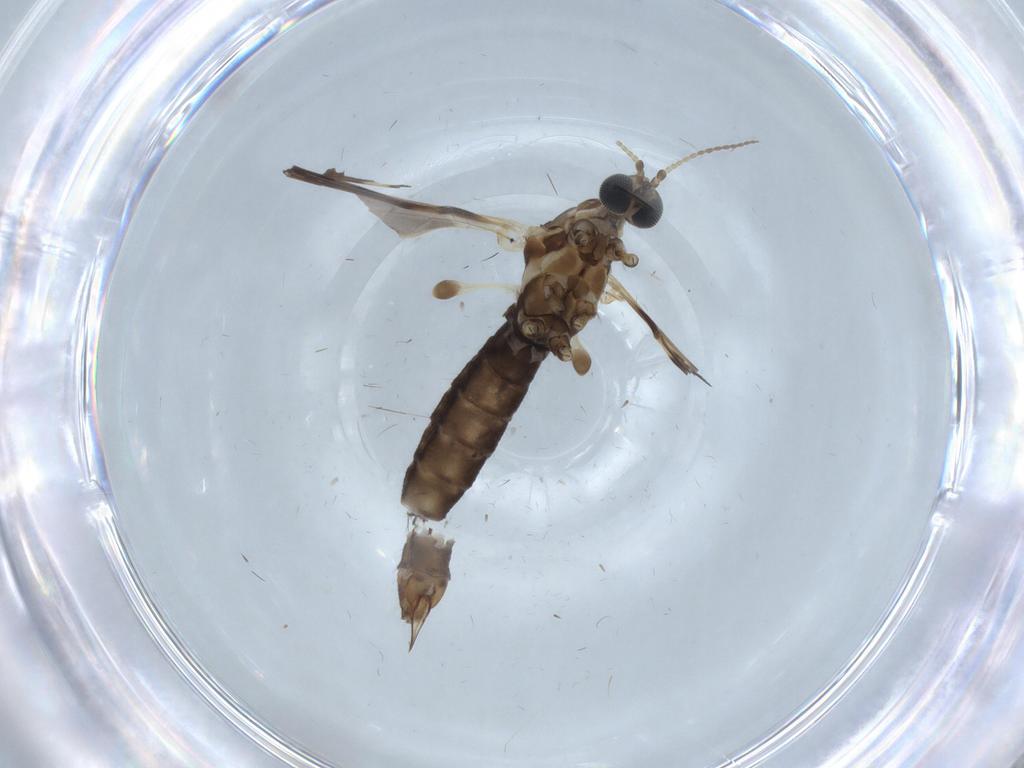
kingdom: Animalia
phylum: Arthropoda
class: Insecta
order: Diptera
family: Limoniidae
